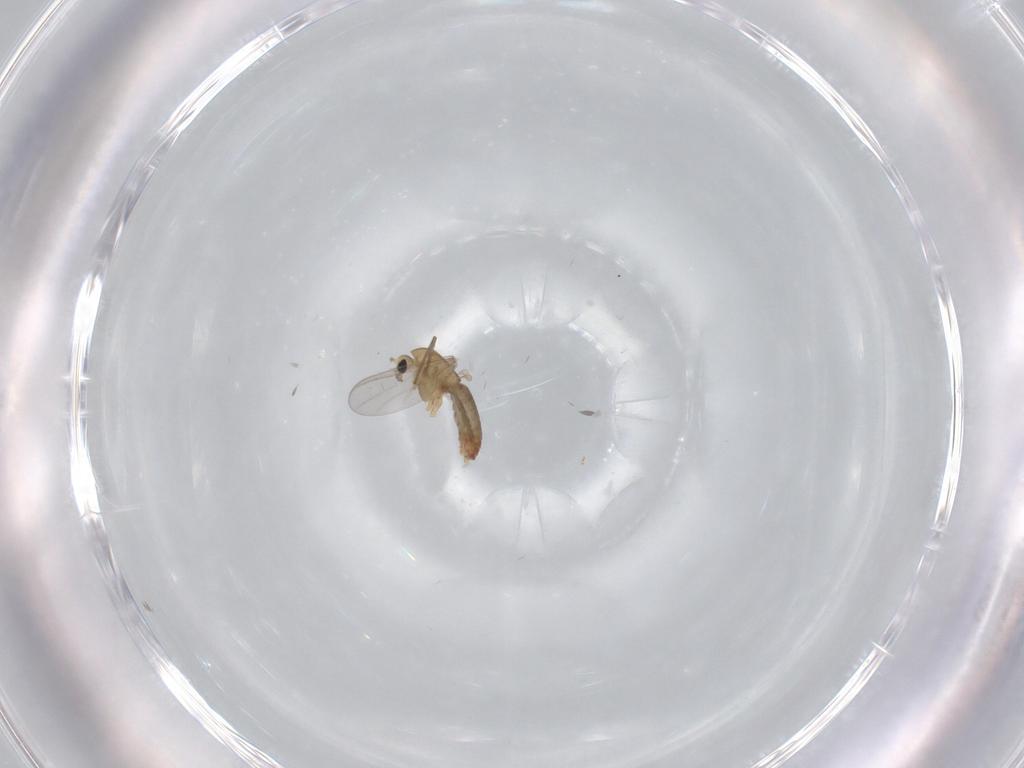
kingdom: Animalia
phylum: Arthropoda
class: Insecta
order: Diptera
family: Chironomidae
